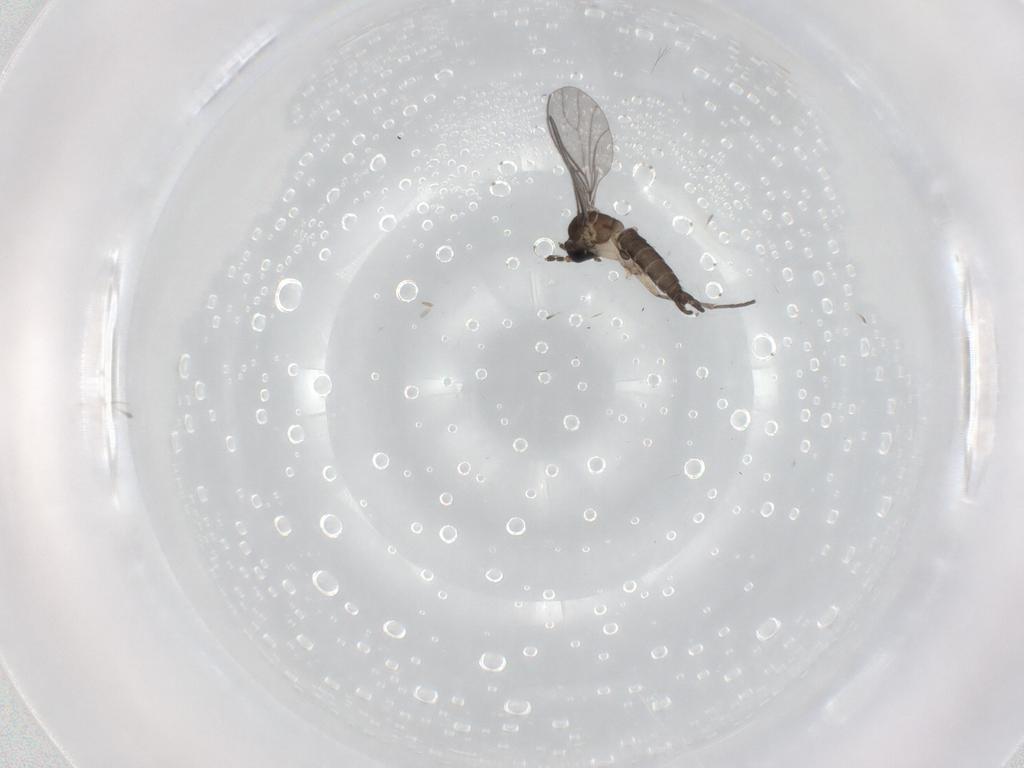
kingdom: Animalia
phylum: Arthropoda
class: Insecta
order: Diptera
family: Sciaridae
